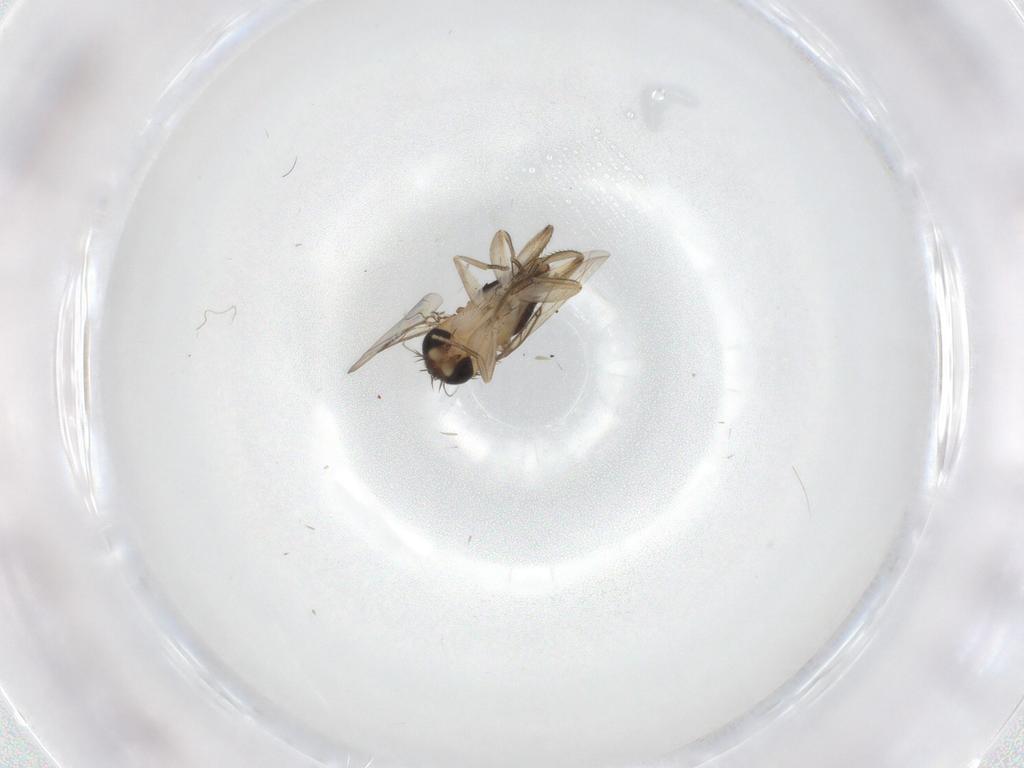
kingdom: Animalia
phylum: Arthropoda
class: Insecta
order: Diptera
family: Phoridae
